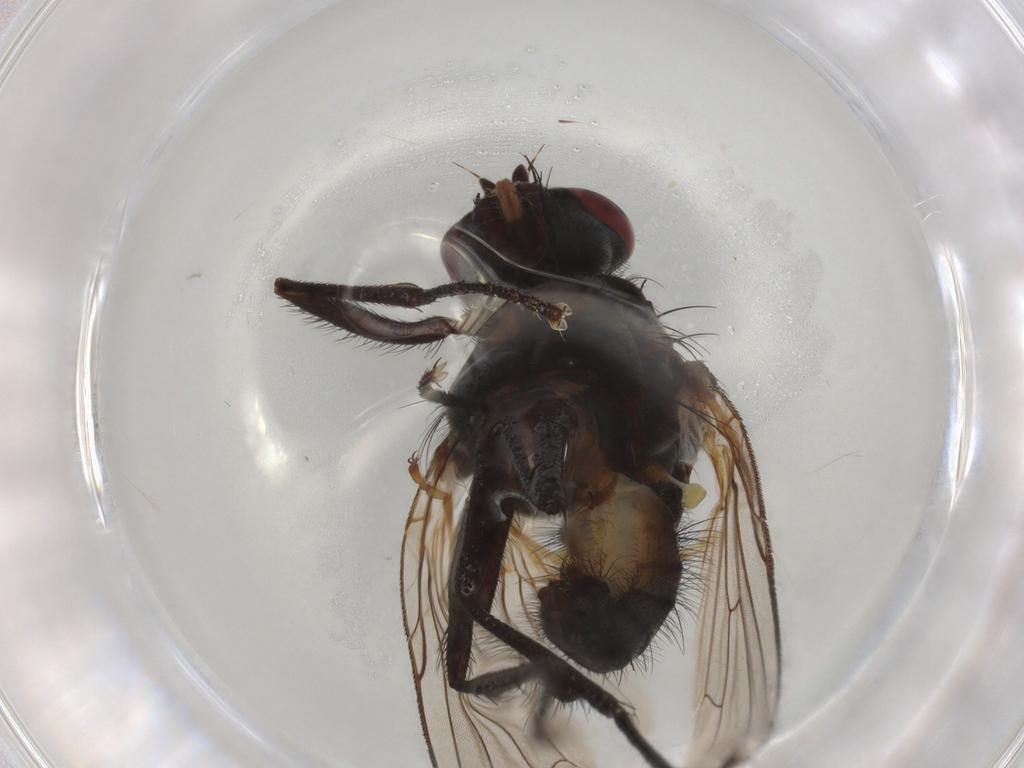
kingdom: Animalia
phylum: Arthropoda
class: Insecta
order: Diptera
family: Anthomyiidae
